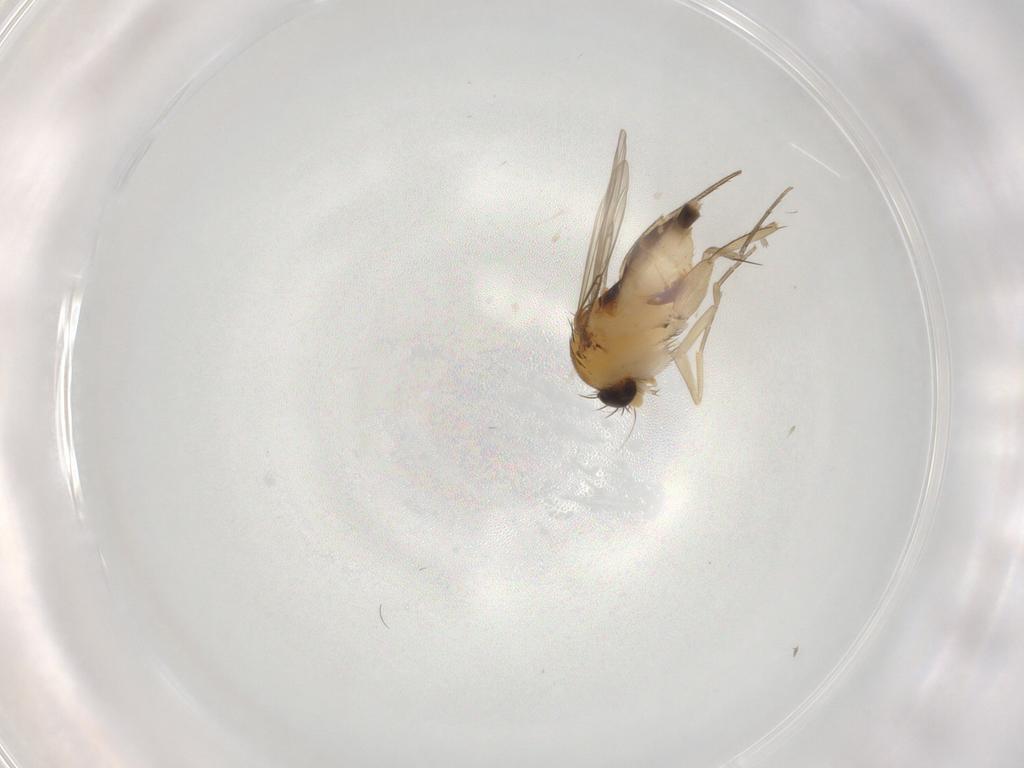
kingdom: Animalia
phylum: Arthropoda
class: Insecta
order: Diptera
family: Phoridae
